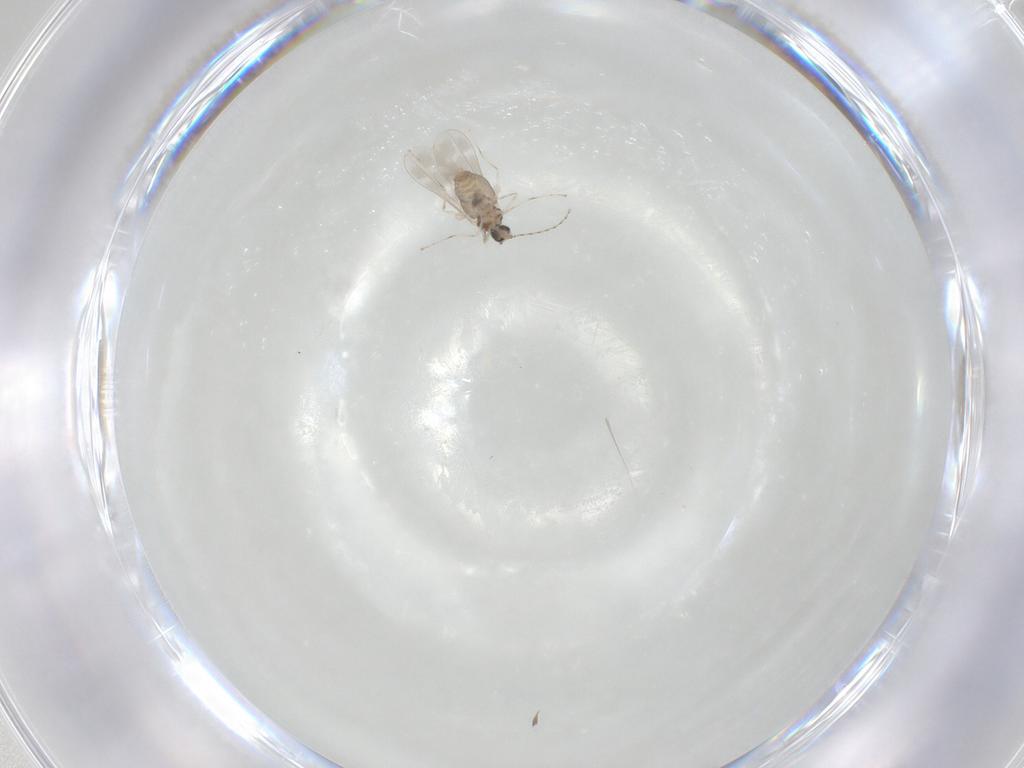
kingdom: Animalia
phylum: Arthropoda
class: Insecta
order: Diptera
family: Cecidomyiidae
